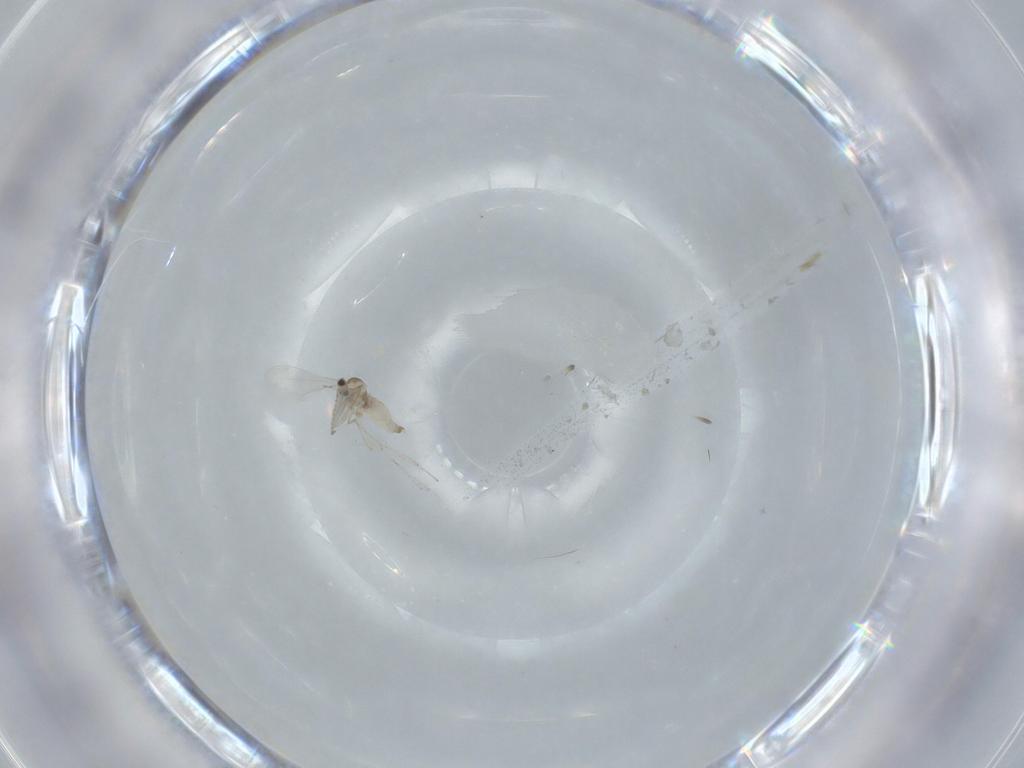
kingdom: Animalia
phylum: Arthropoda
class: Insecta
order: Diptera
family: Cecidomyiidae
